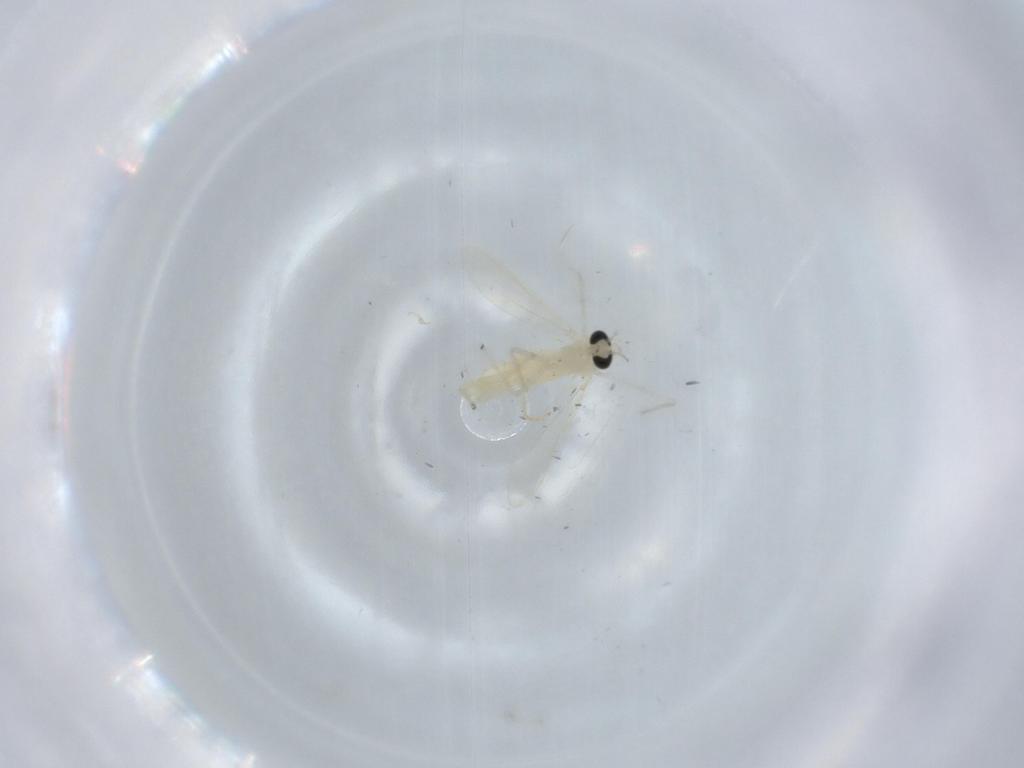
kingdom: Animalia
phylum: Arthropoda
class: Insecta
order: Diptera
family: Chironomidae
